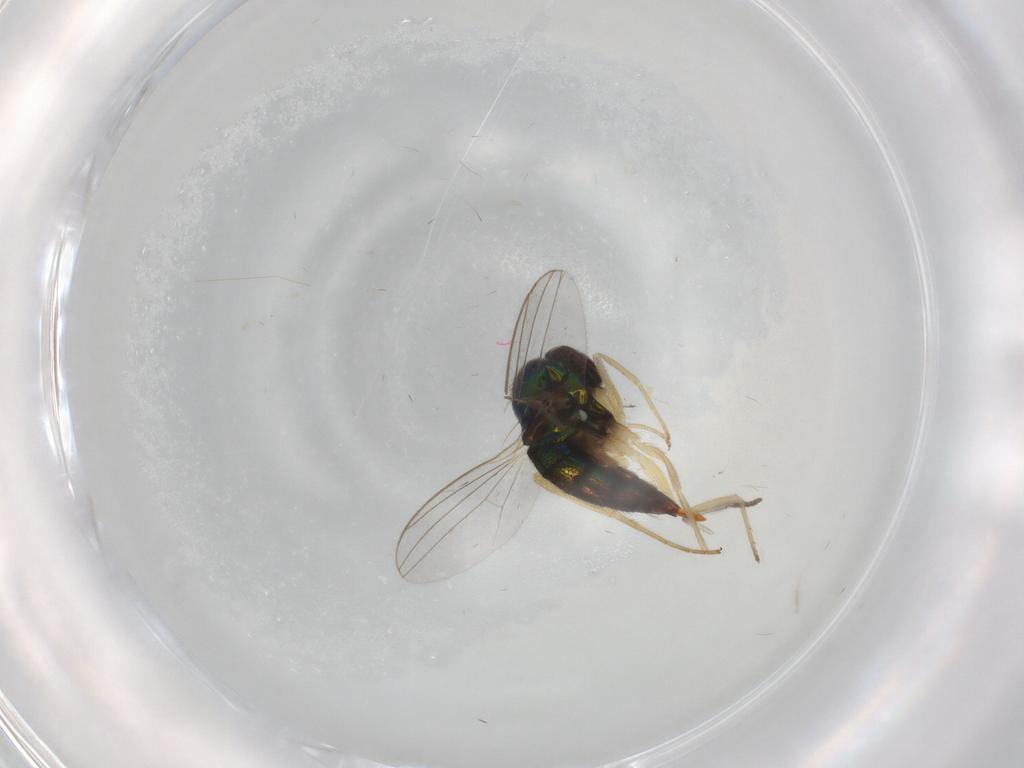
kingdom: Animalia
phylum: Arthropoda
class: Insecta
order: Diptera
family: Dolichopodidae
